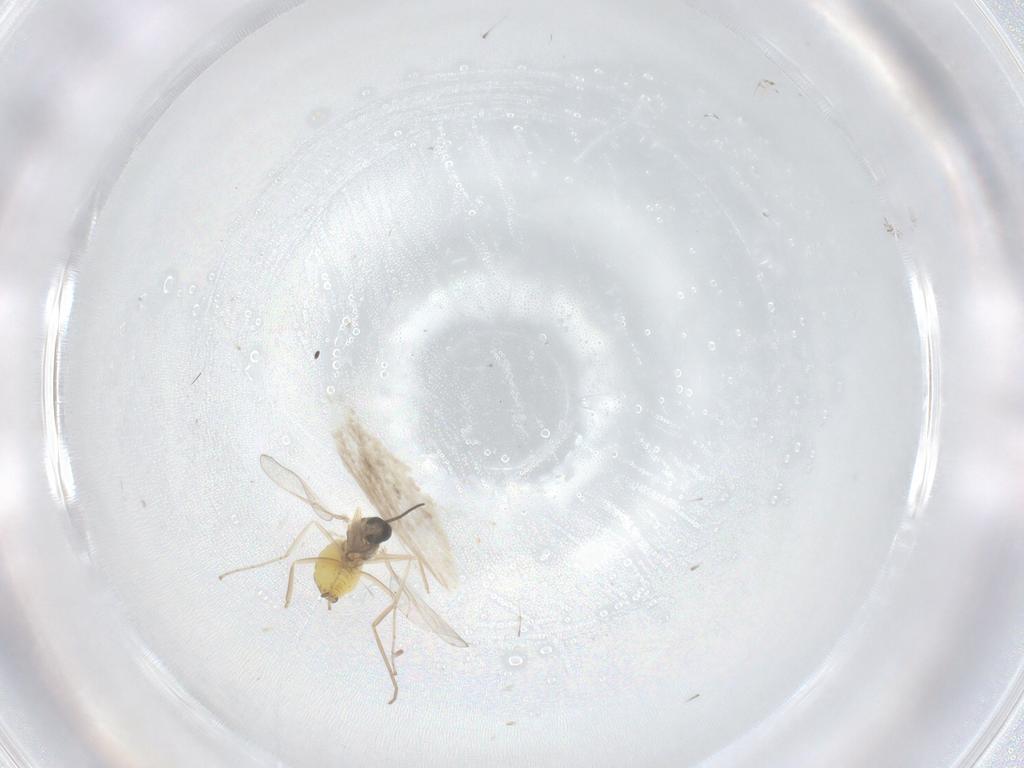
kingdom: Animalia
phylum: Arthropoda
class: Insecta
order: Diptera
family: Cecidomyiidae
